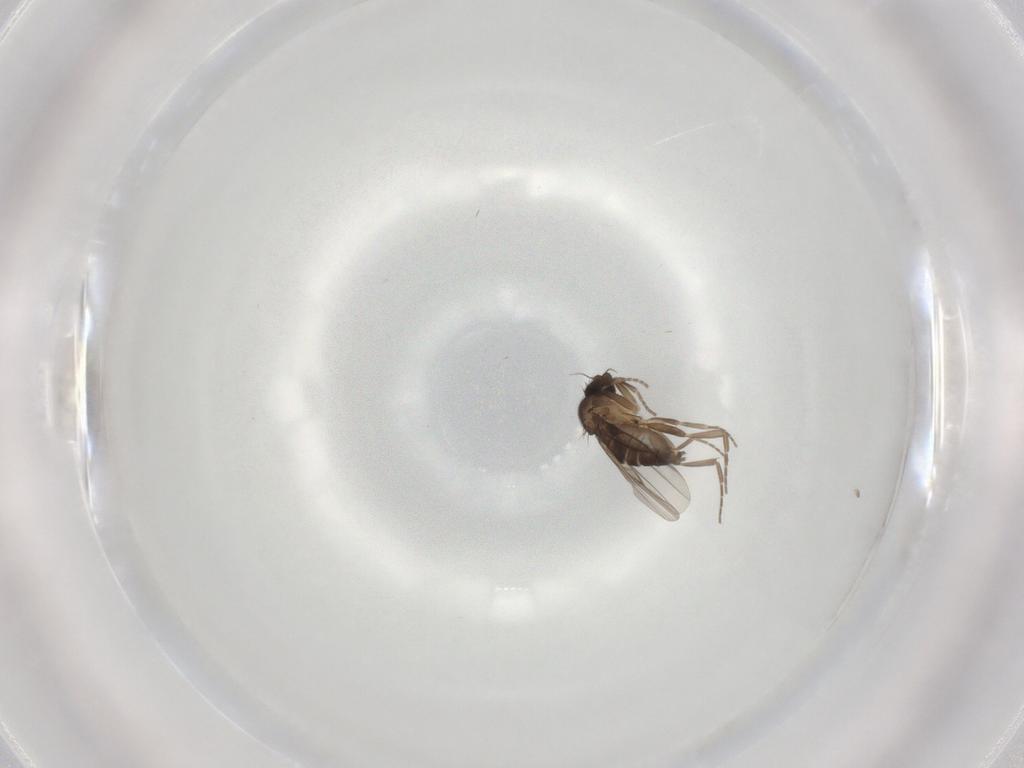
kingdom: Animalia
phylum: Arthropoda
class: Insecta
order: Diptera
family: Phoridae
